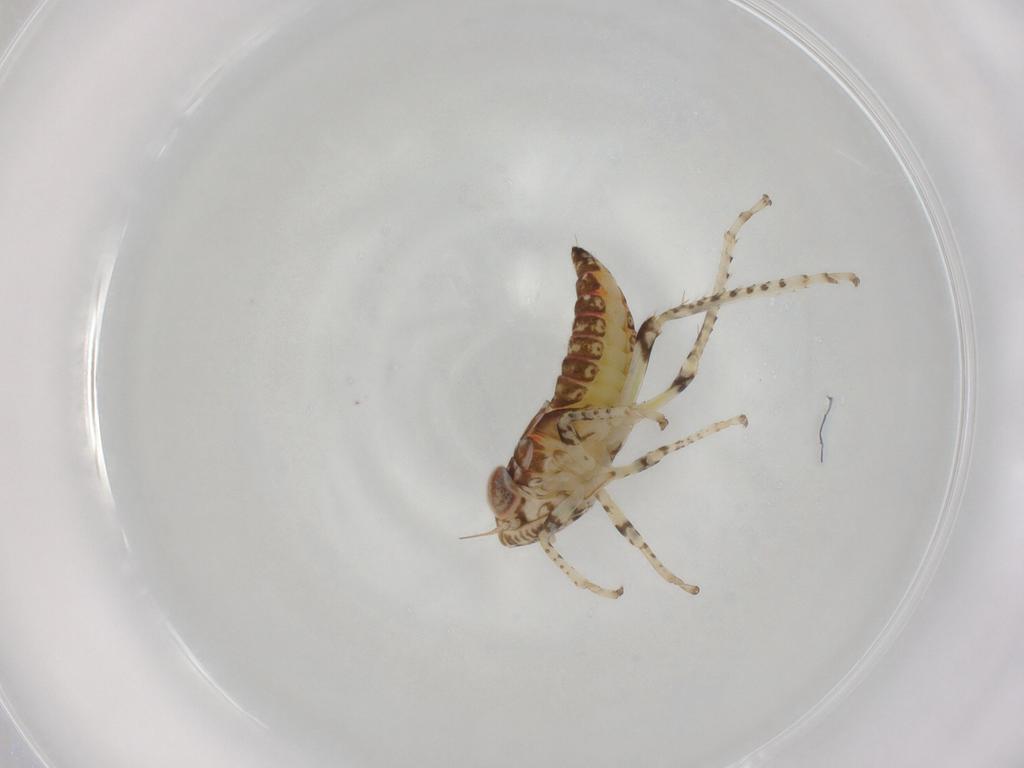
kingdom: Animalia
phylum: Arthropoda
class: Insecta
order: Hemiptera
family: Cicadellidae
